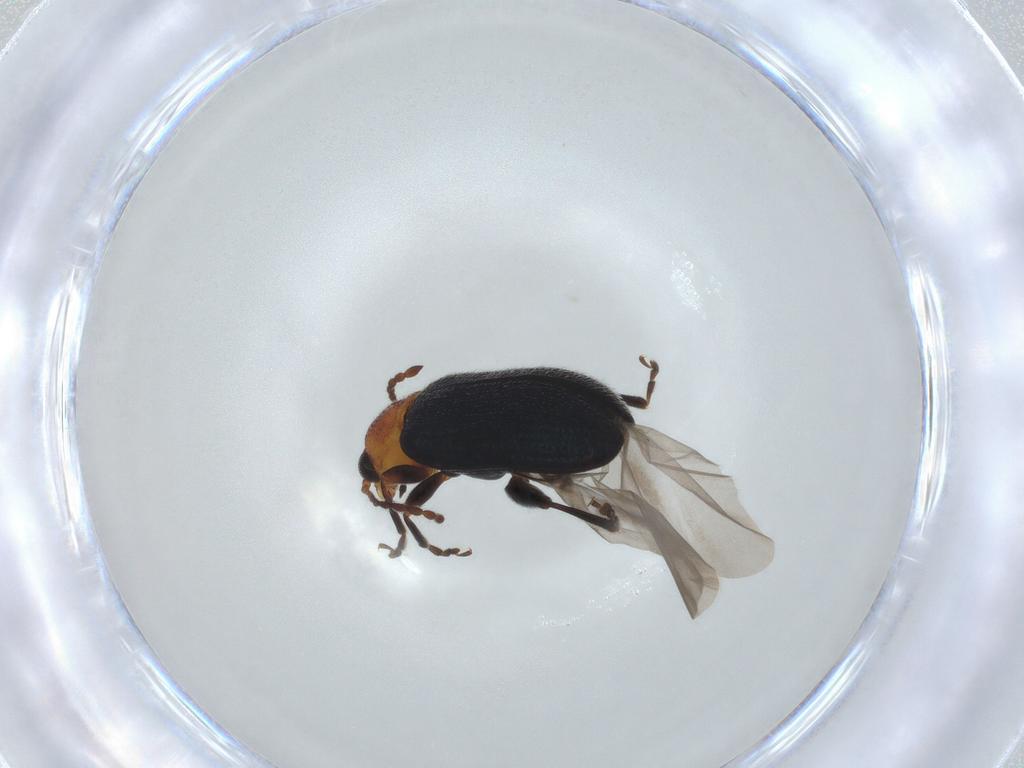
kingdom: Animalia
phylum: Arthropoda
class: Insecta
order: Coleoptera
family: Chrysomelidae
